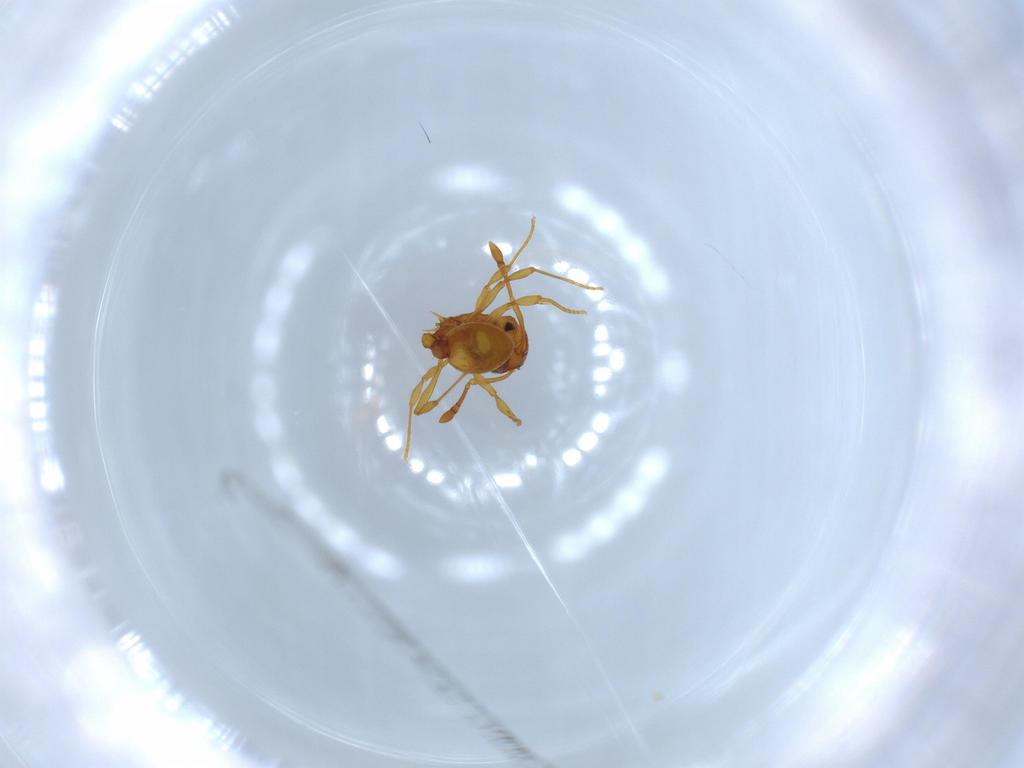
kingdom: Animalia
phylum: Arthropoda
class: Insecta
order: Hymenoptera
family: Formicidae
